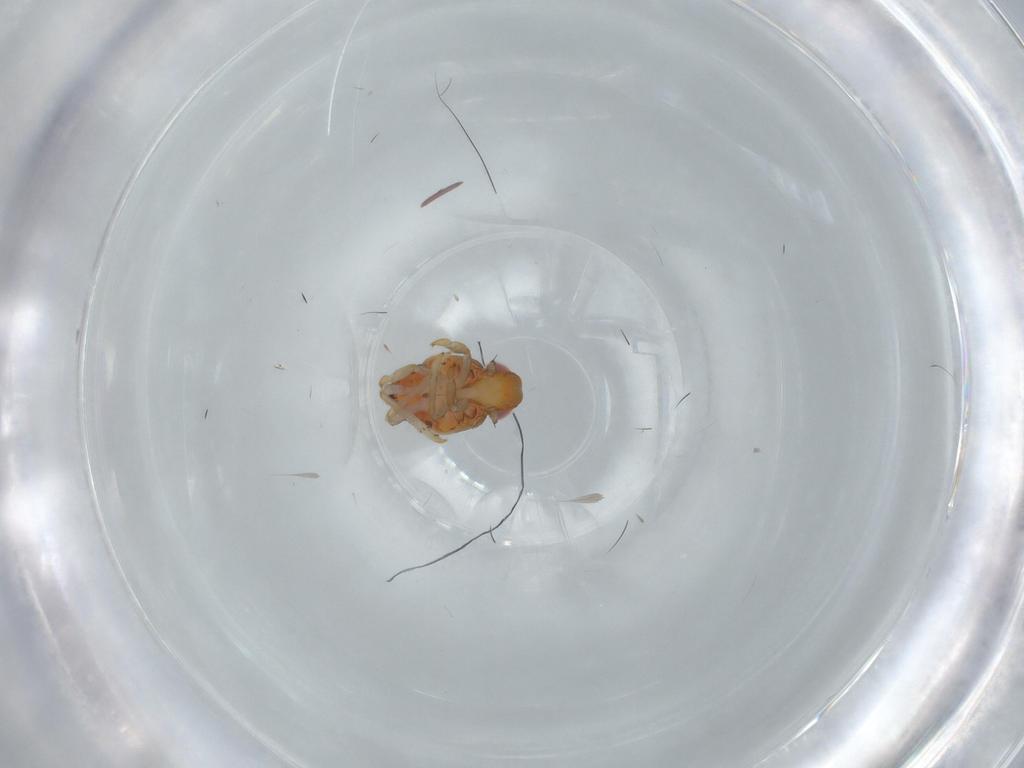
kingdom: Animalia
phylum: Arthropoda
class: Insecta
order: Hemiptera
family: Issidae
